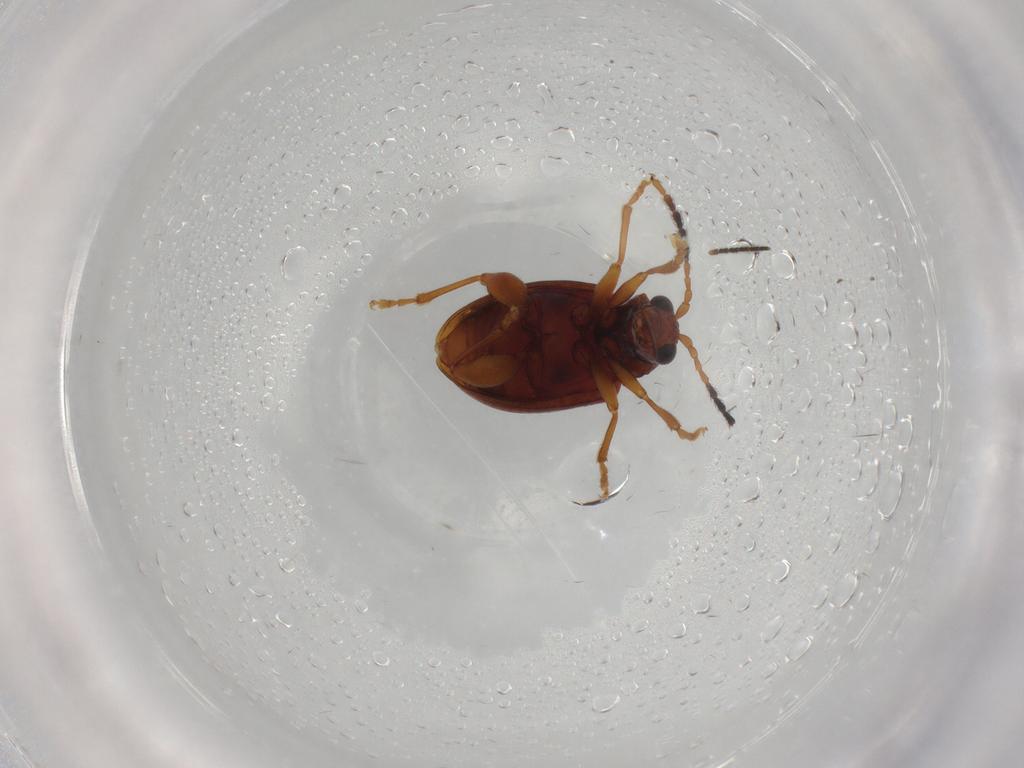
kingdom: Animalia
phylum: Arthropoda
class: Insecta
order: Coleoptera
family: Chrysomelidae
